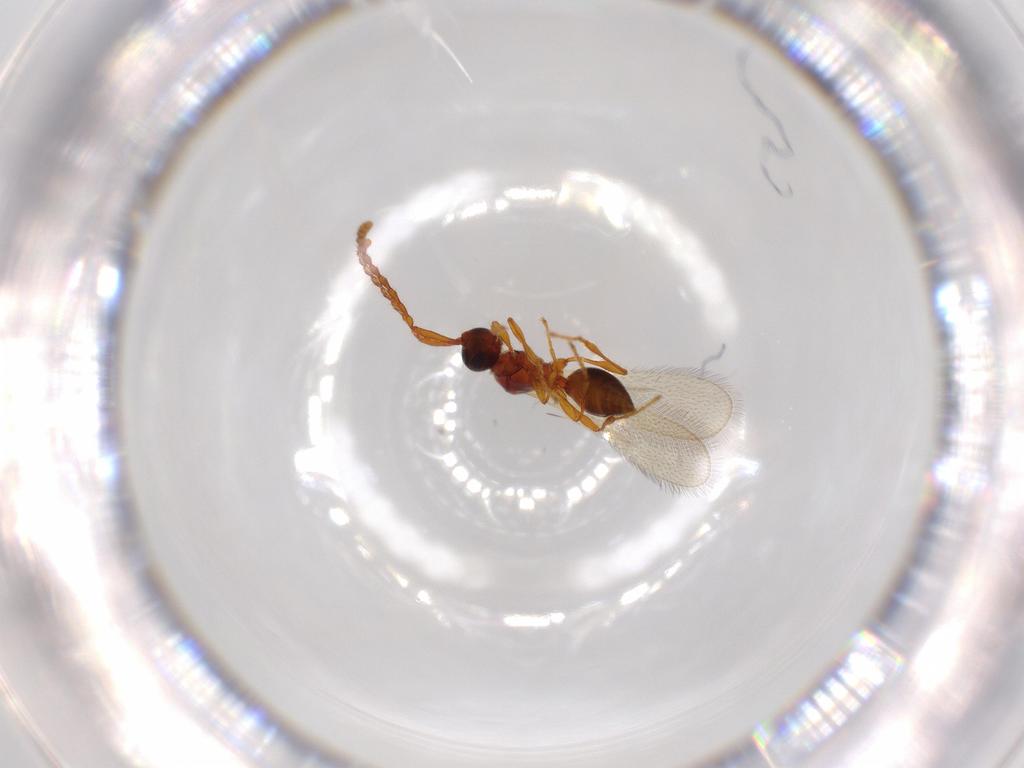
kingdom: Animalia
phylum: Arthropoda
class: Insecta
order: Hymenoptera
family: Diapriidae
